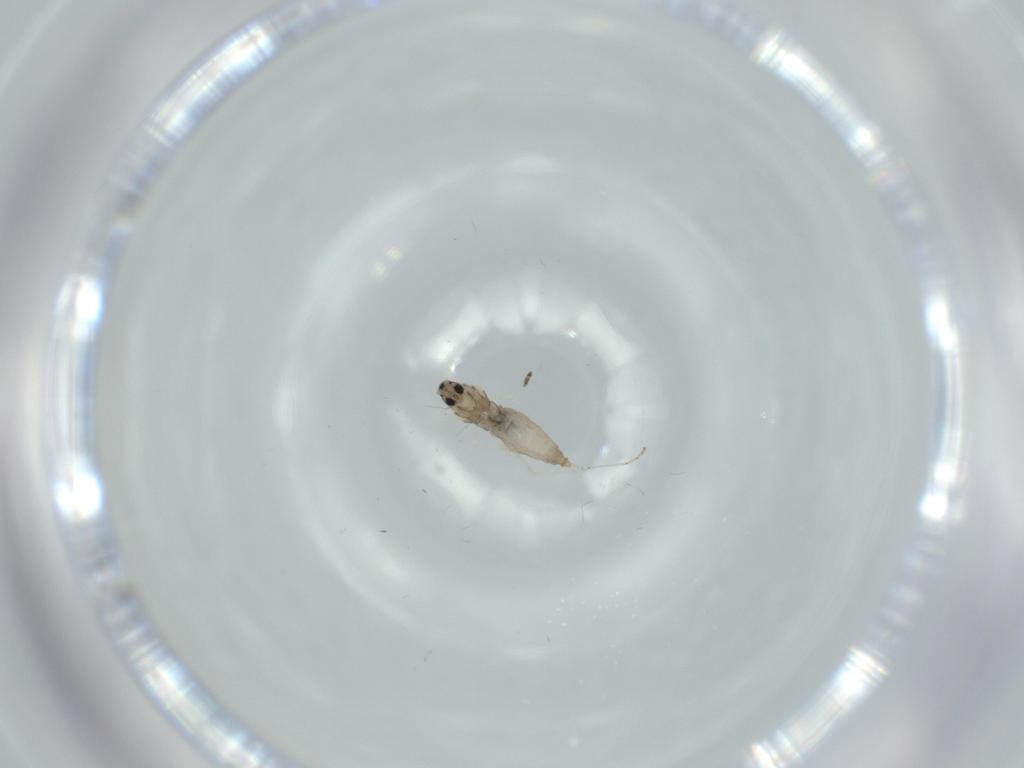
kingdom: Animalia
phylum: Arthropoda
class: Insecta
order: Diptera
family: Cecidomyiidae
